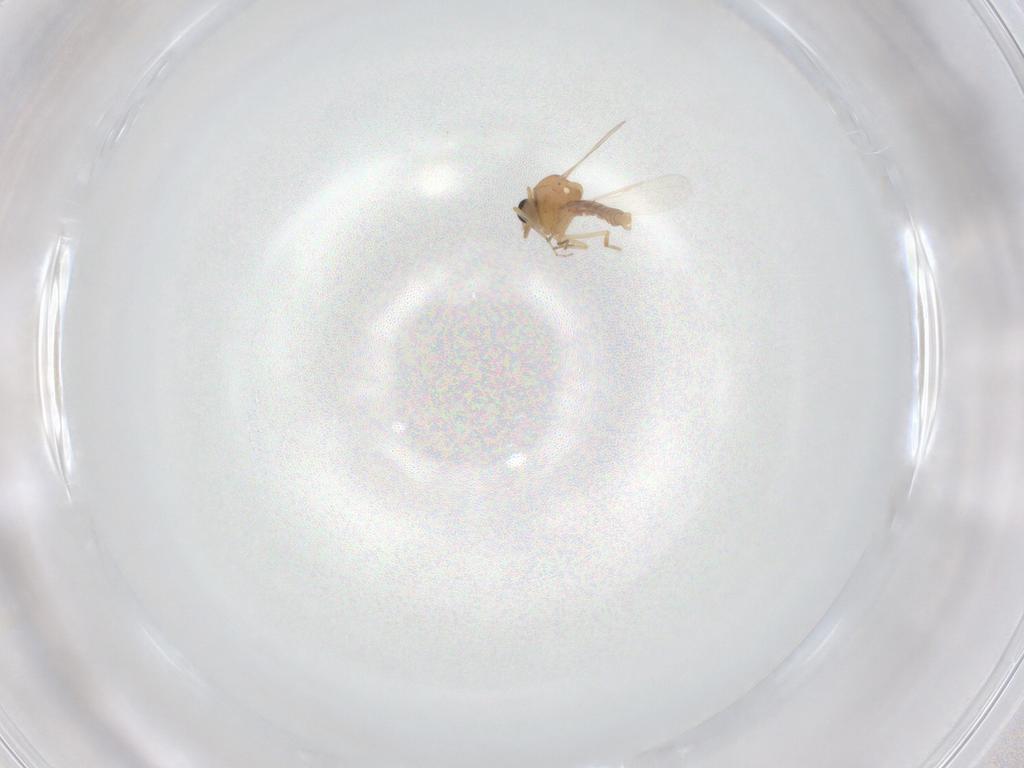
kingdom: Animalia
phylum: Arthropoda
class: Insecta
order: Diptera
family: Ceratopogonidae
